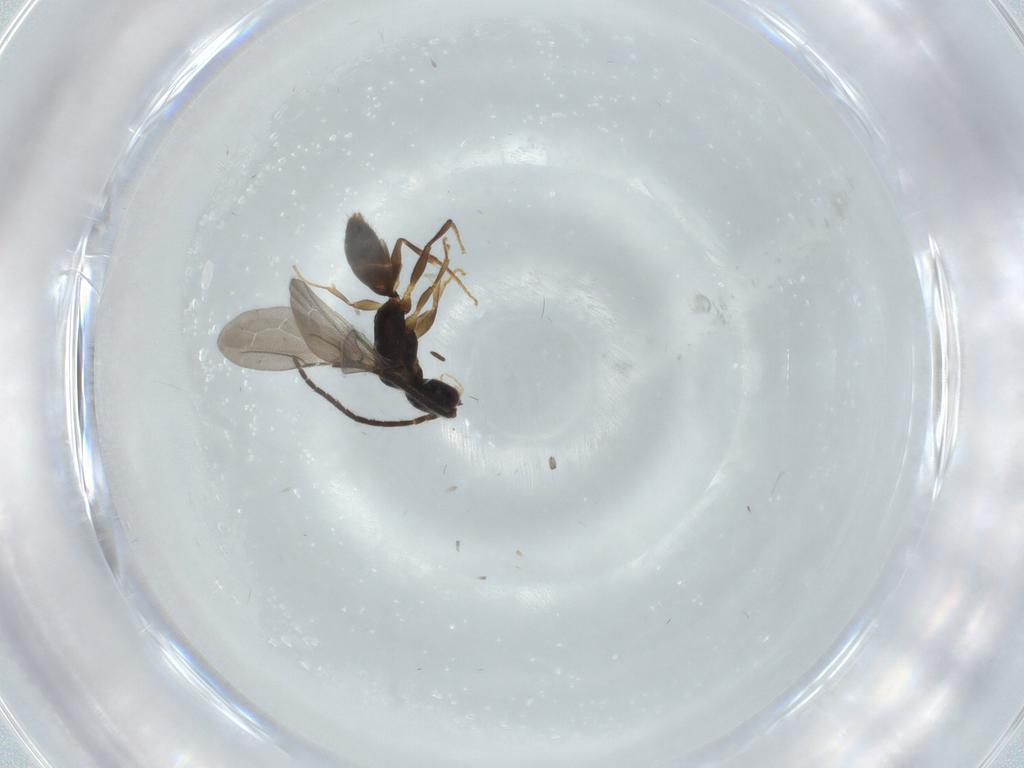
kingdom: Animalia
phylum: Arthropoda
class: Insecta
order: Hymenoptera
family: Bethylidae
